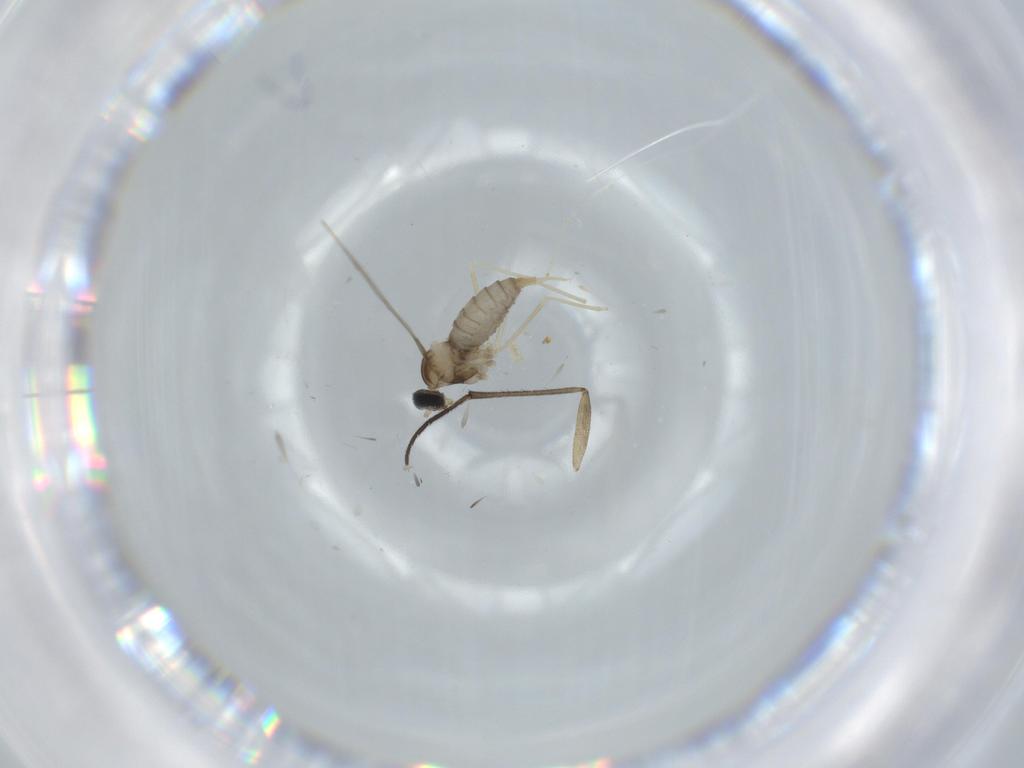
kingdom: Animalia
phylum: Arthropoda
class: Insecta
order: Diptera
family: Cecidomyiidae
